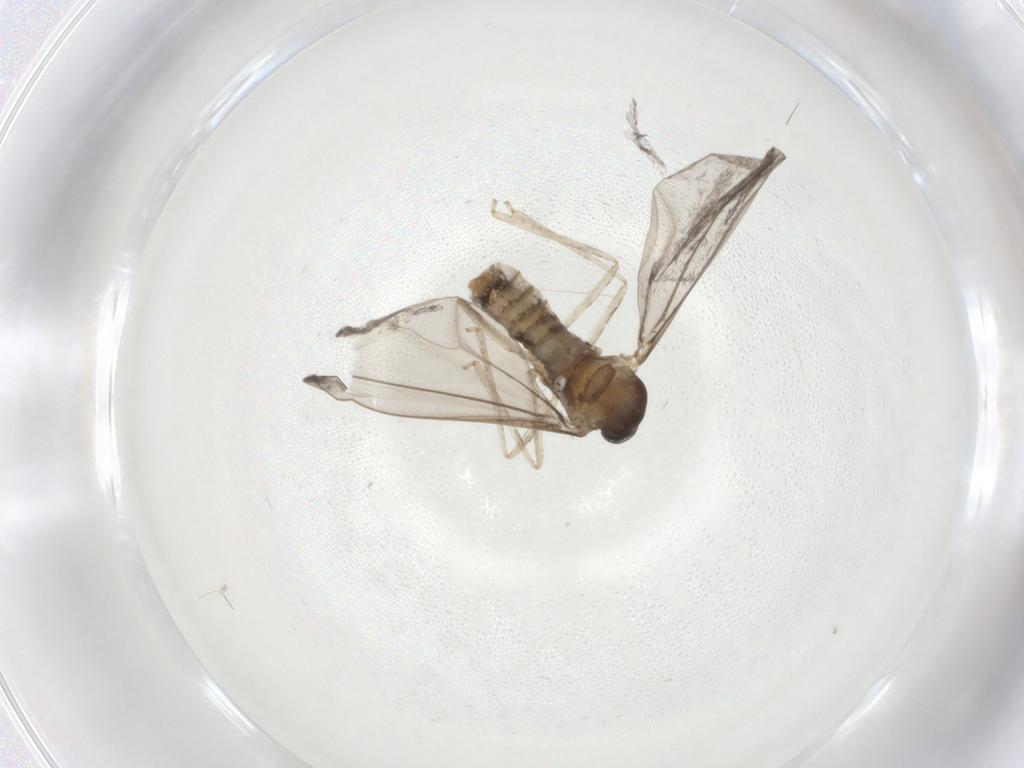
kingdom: Animalia
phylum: Arthropoda
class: Insecta
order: Diptera
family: Cecidomyiidae
